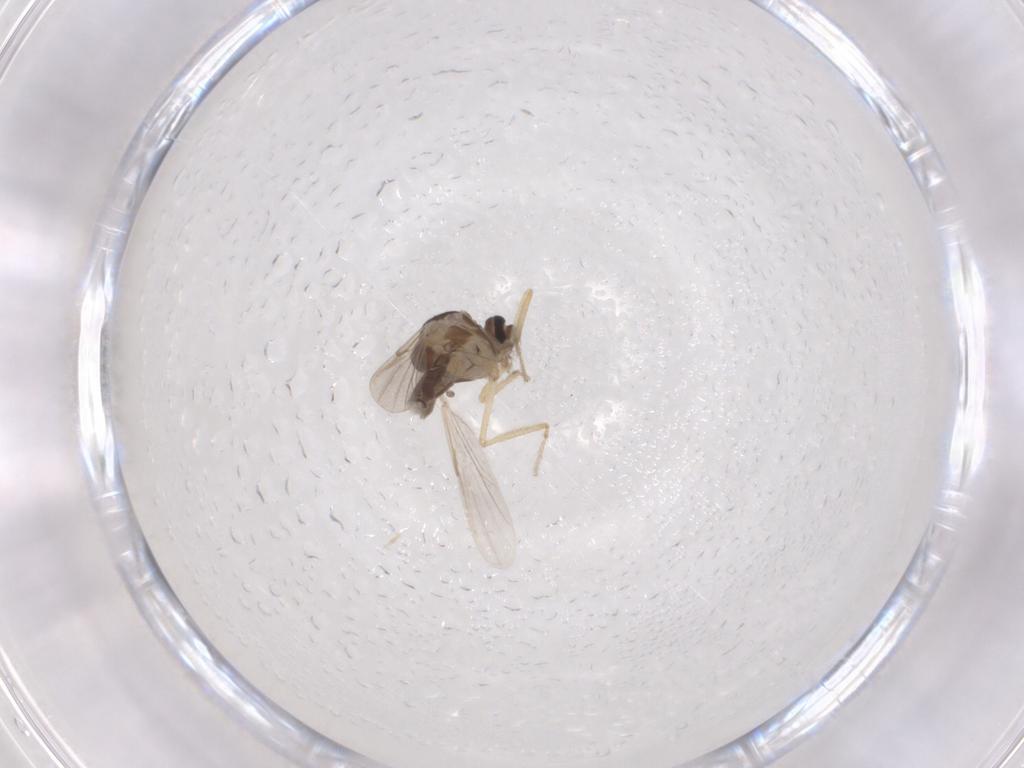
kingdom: Animalia
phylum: Arthropoda
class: Insecta
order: Diptera
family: Ceratopogonidae
